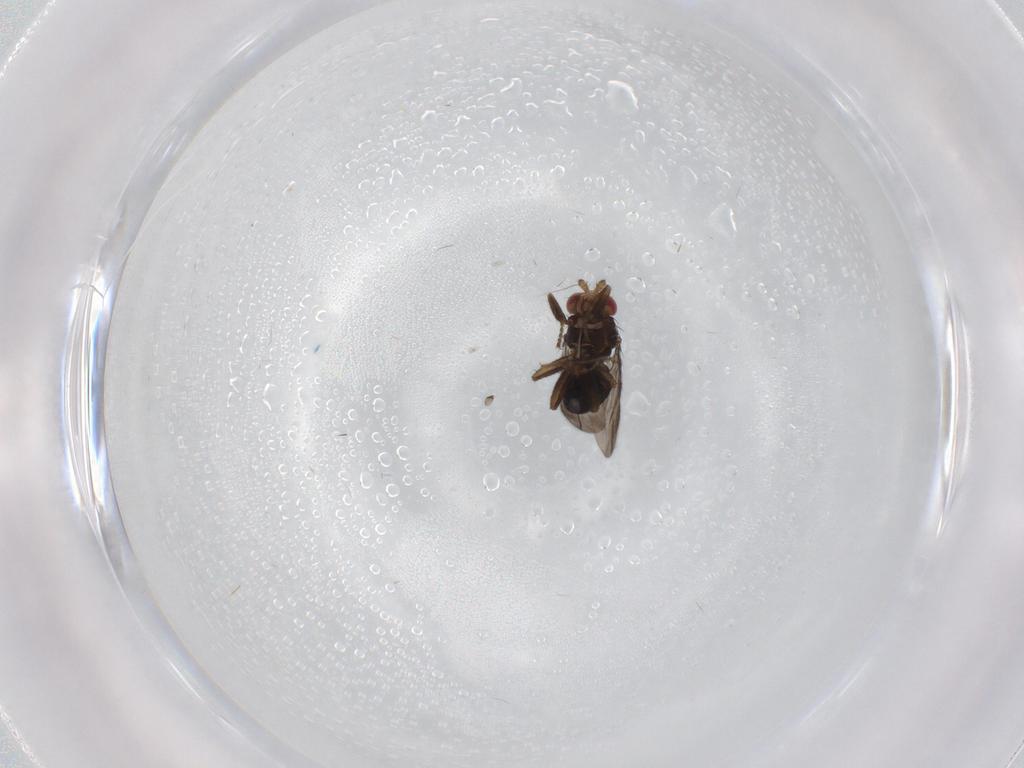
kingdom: Animalia
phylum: Arthropoda
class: Insecta
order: Diptera
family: Sphaeroceridae
